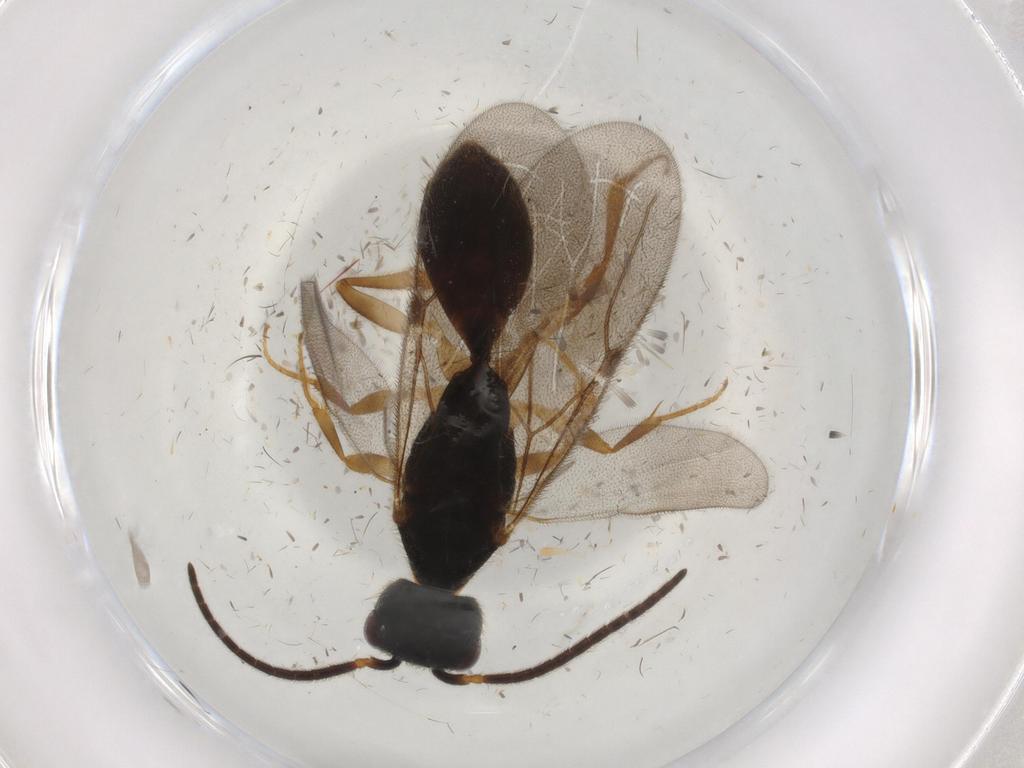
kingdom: Animalia
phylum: Arthropoda
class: Insecta
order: Hymenoptera
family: Bethylidae
